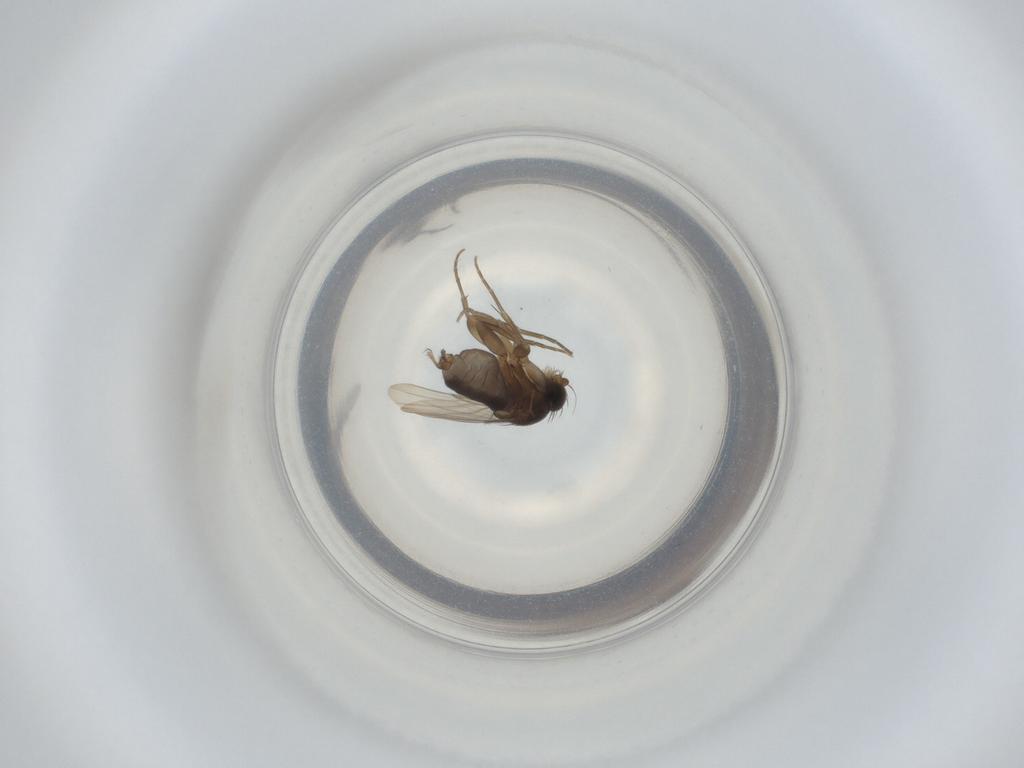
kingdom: Animalia
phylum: Arthropoda
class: Insecta
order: Diptera
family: Phoridae
